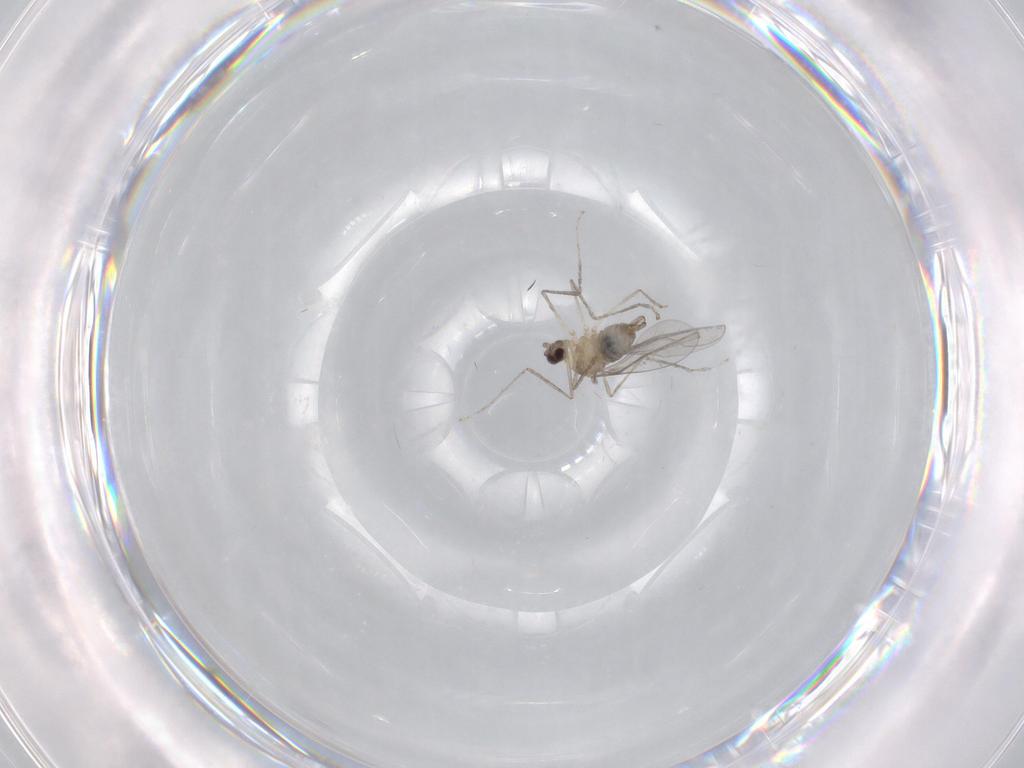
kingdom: Animalia
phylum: Arthropoda
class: Insecta
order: Diptera
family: Cecidomyiidae
